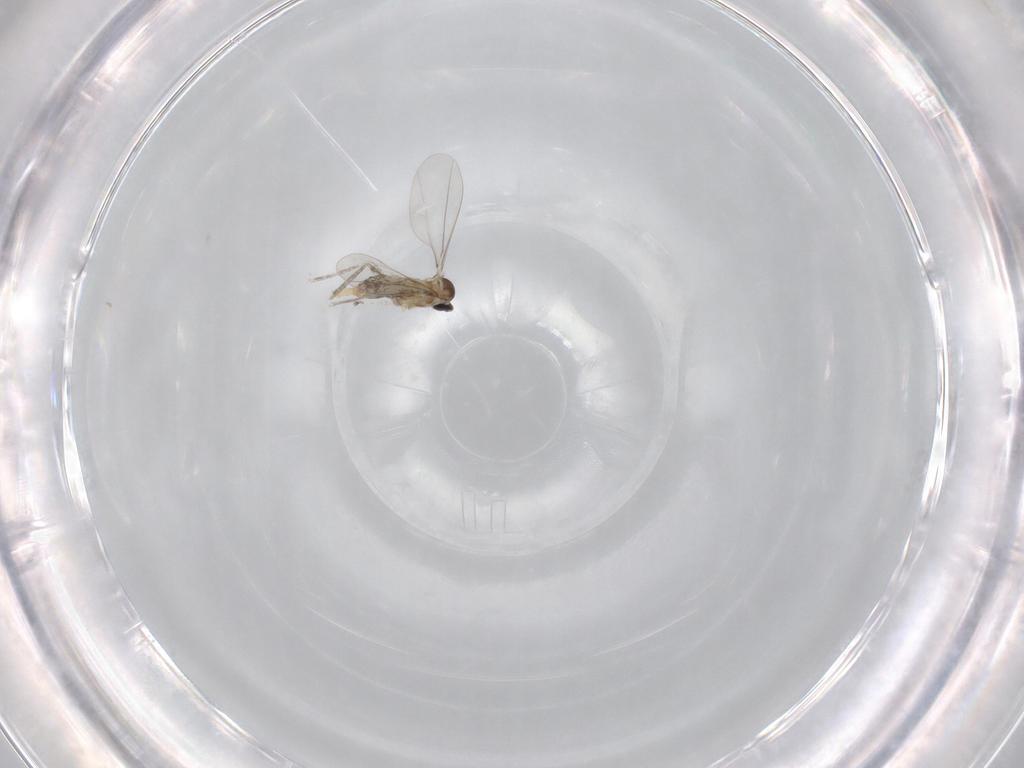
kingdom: Animalia
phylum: Arthropoda
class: Insecta
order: Diptera
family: Cecidomyiidae
